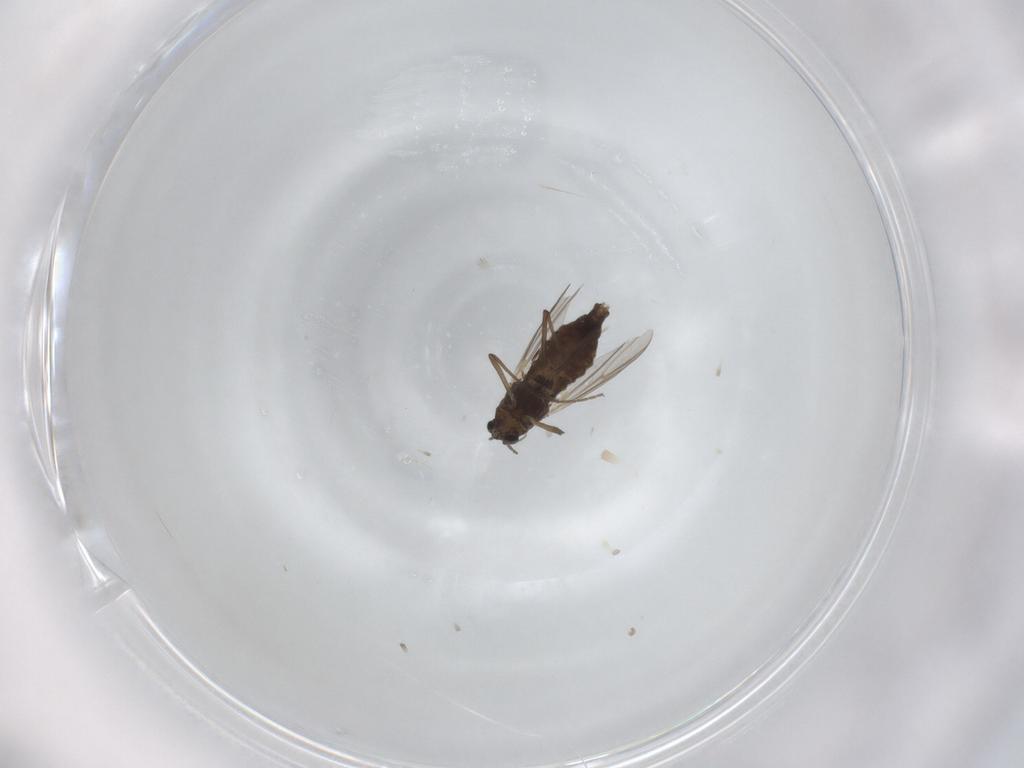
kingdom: Animalia
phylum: Arthropoda
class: Insecta
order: Diptera
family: Chironomidae
